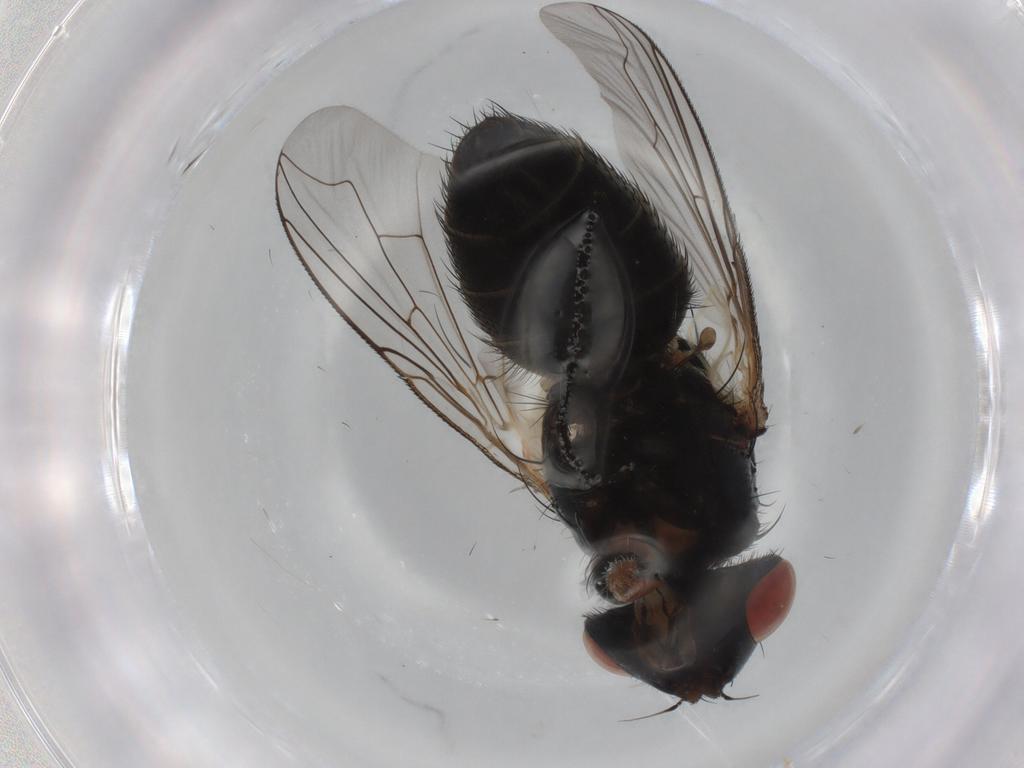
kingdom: Animalia
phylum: Arthropoda
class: Insecta
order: Diptera
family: Sarcophagidae
